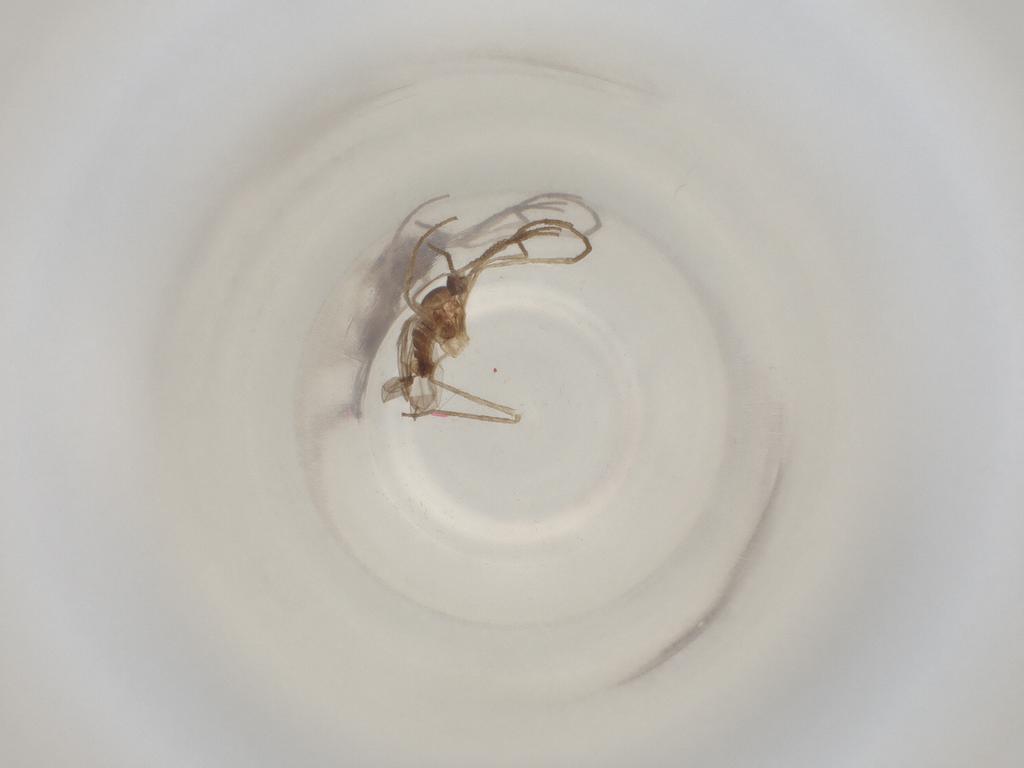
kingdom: Animalia
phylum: Arthropoda
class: Insecta
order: Diptera
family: Cecidomyiidae
